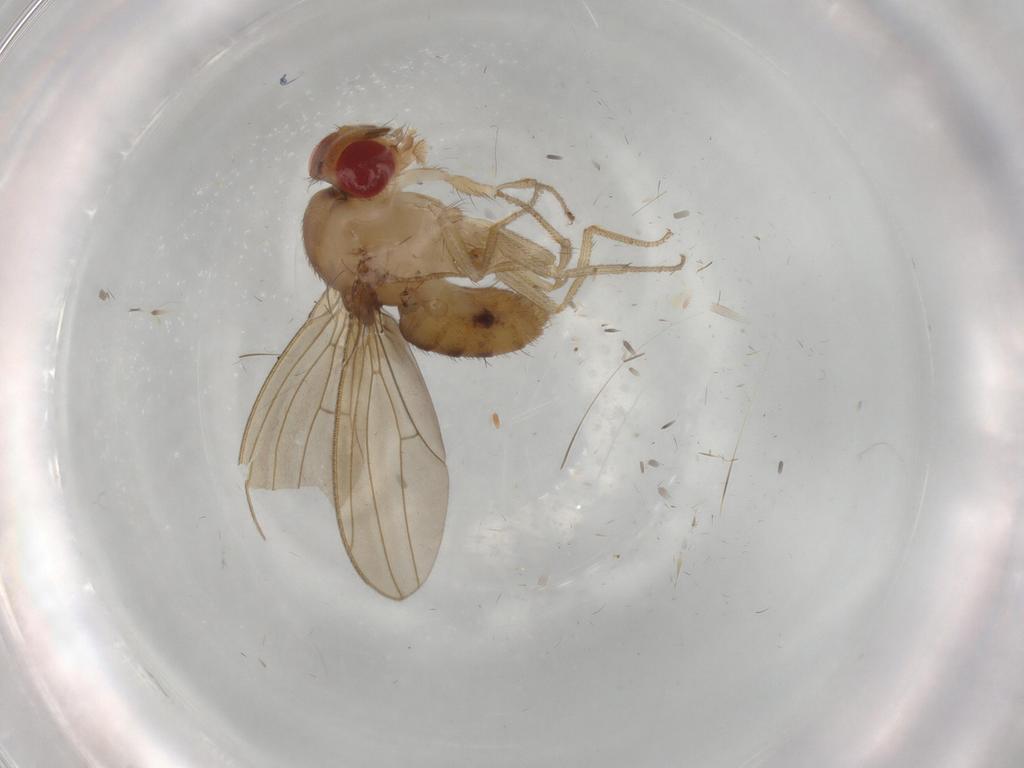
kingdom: Animalia
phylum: Arthropoda
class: Insecta
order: Diptera
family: Drosophilidae
